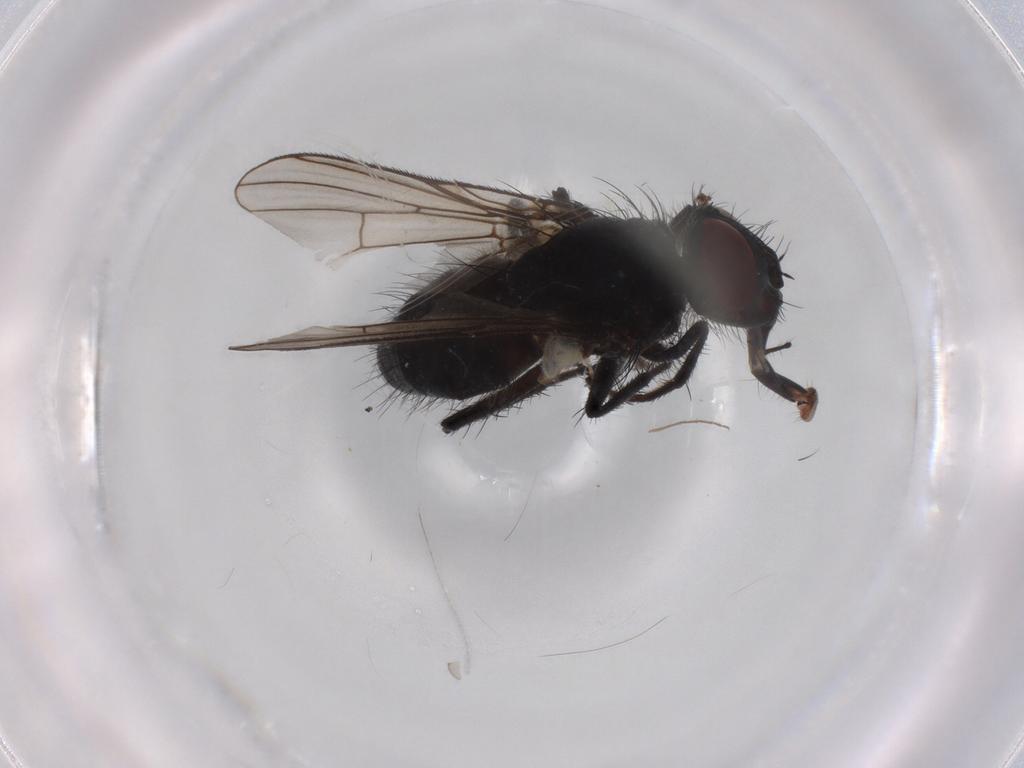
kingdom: Animalia
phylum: Arthropoda
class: Insecta
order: Diptera
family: Muscidae
